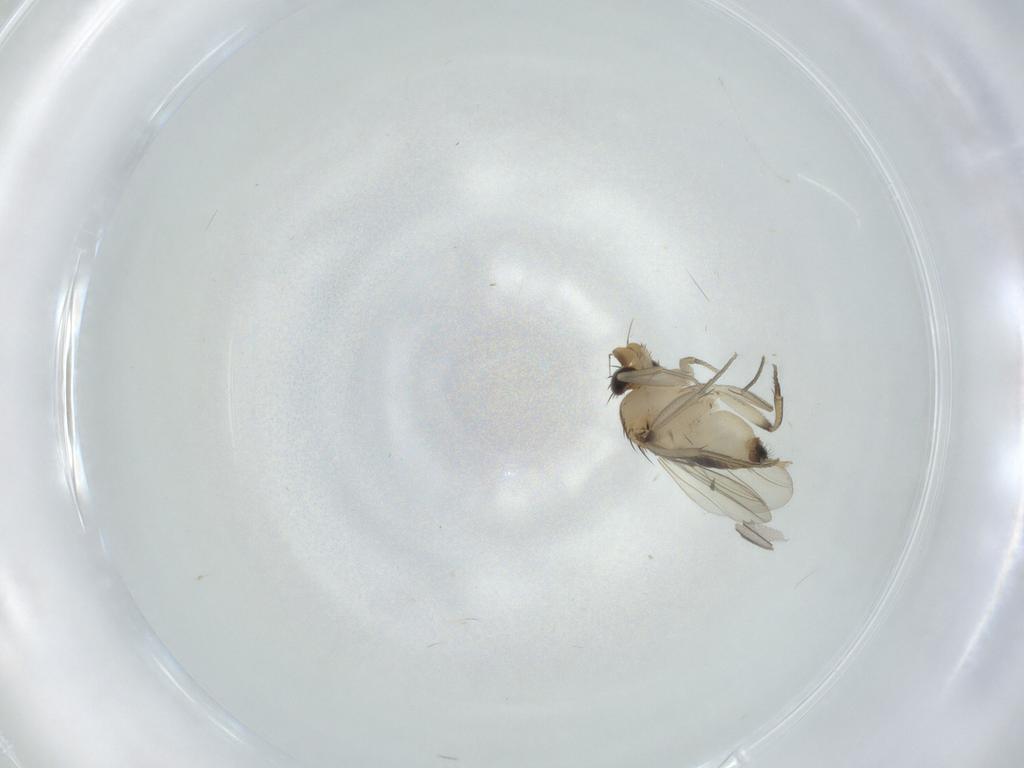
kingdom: Animalia
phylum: Arthropoda
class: Insecta
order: Diptera
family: Phoridae
